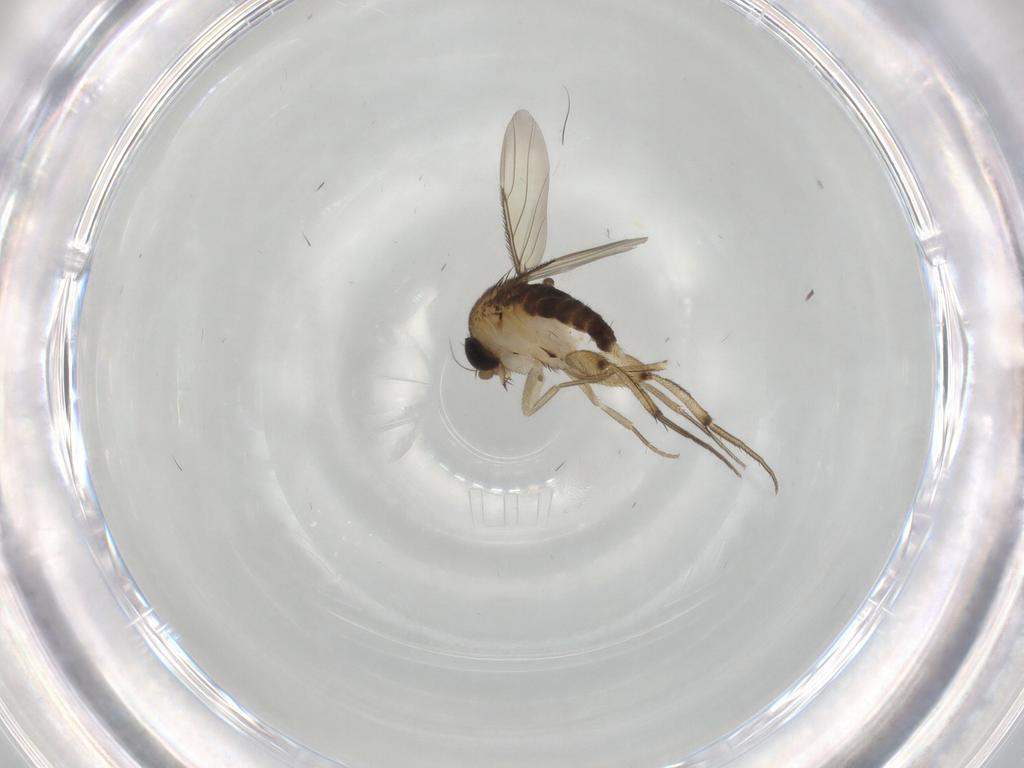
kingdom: Animalia
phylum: Arthropoda
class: Insecta
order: Diptera
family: Phoridae
